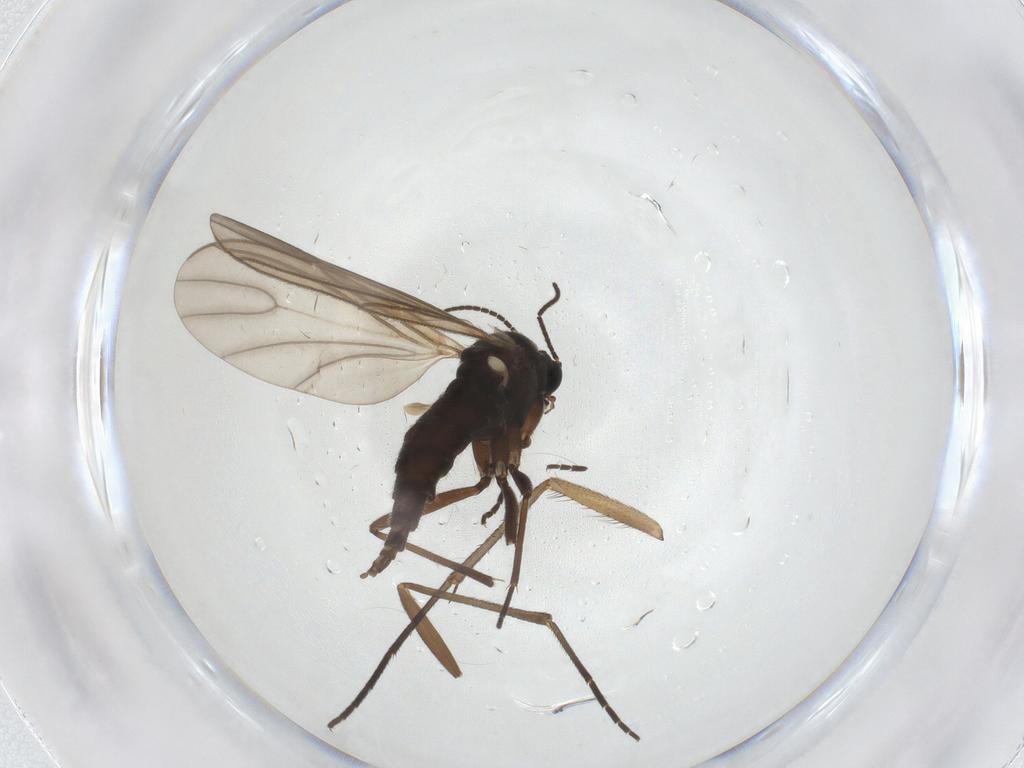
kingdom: Animalia
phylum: Arthropoda
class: Insecta
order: Diptera
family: Sciaridae
